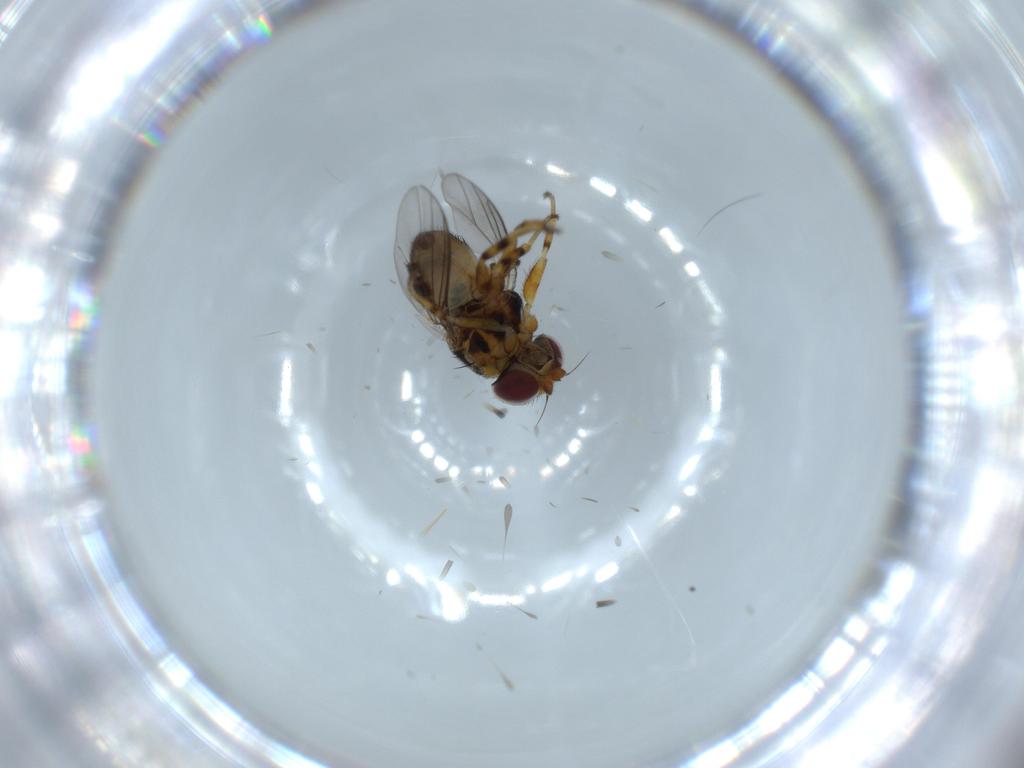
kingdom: Animalia
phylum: Arthropoda
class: Insecta
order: Diptera
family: Chloropidae
